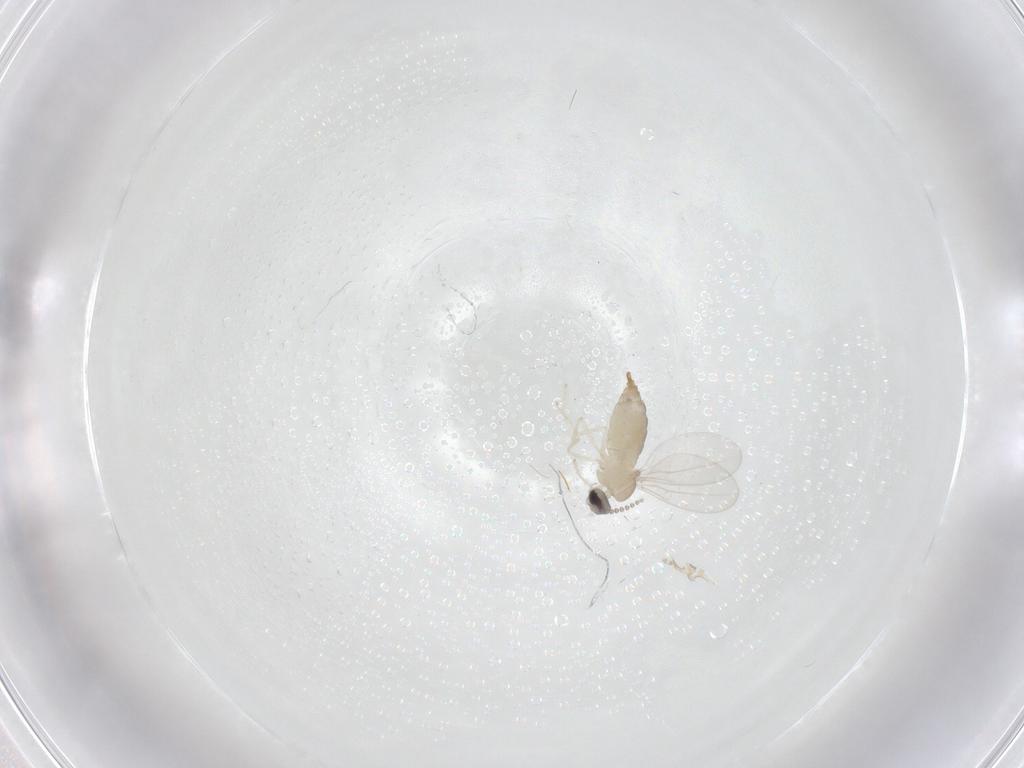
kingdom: Animalia
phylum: Arthropoda
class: Insecta
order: Diptera
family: Cecidomyiidae
